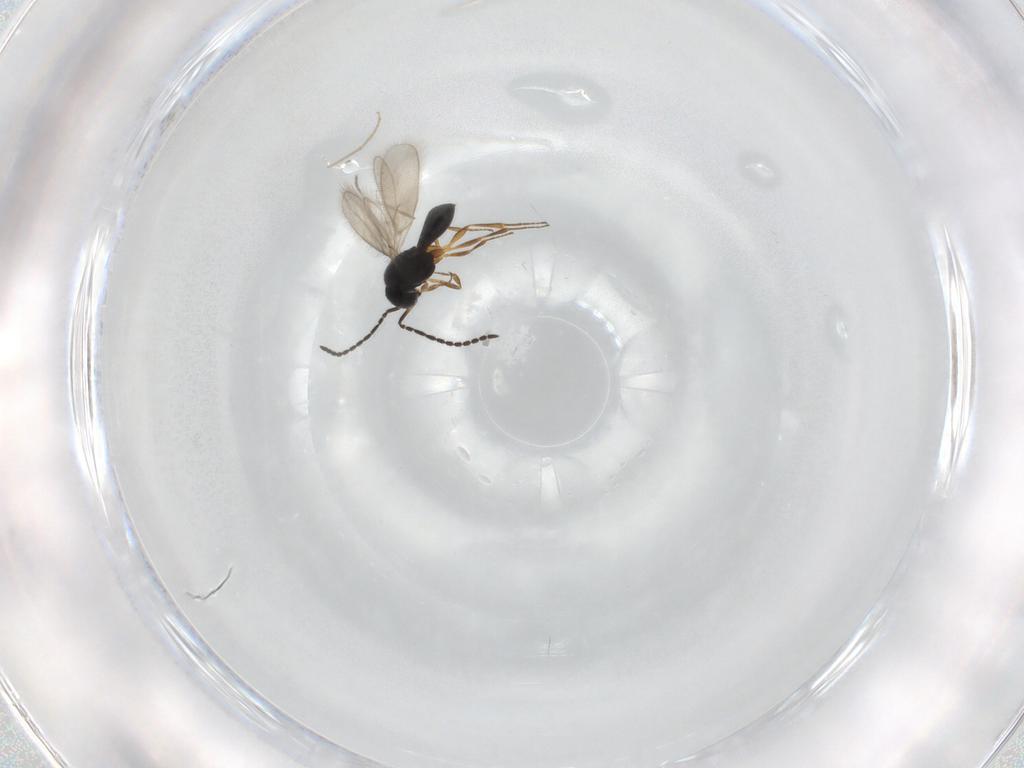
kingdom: Animalia
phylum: Arthropoda
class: Insecta
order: Hymenoptera
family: Scelionidae
